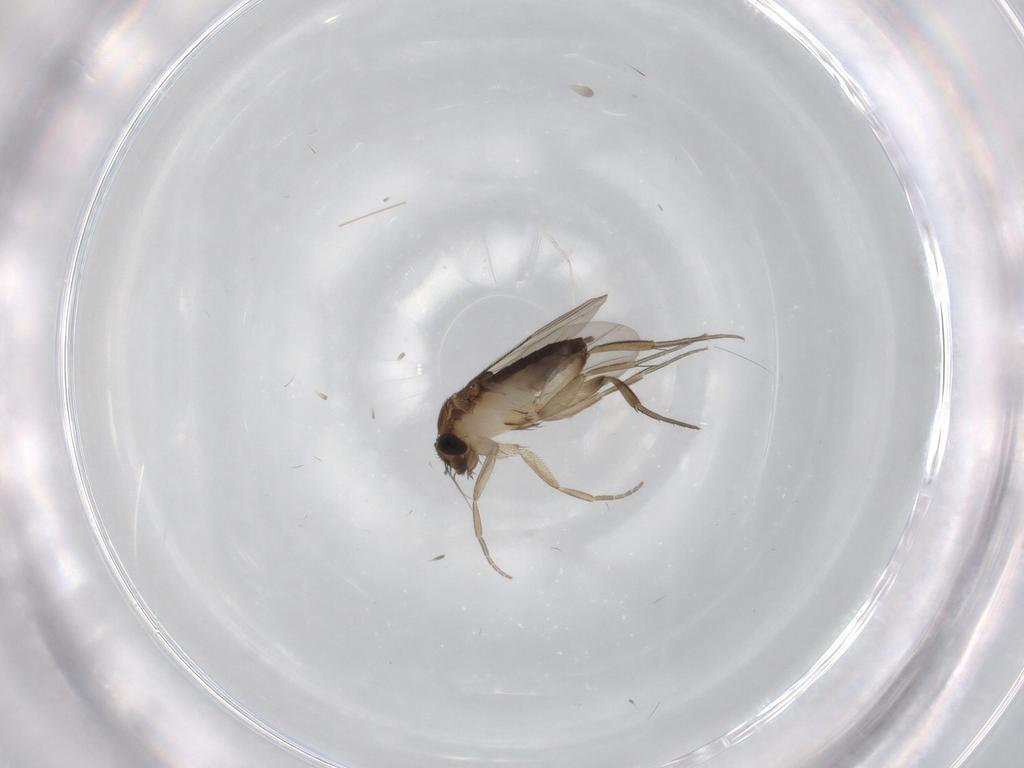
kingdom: Animalia
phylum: Arthropoda
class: Insecta
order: Diptera
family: Phoridae
